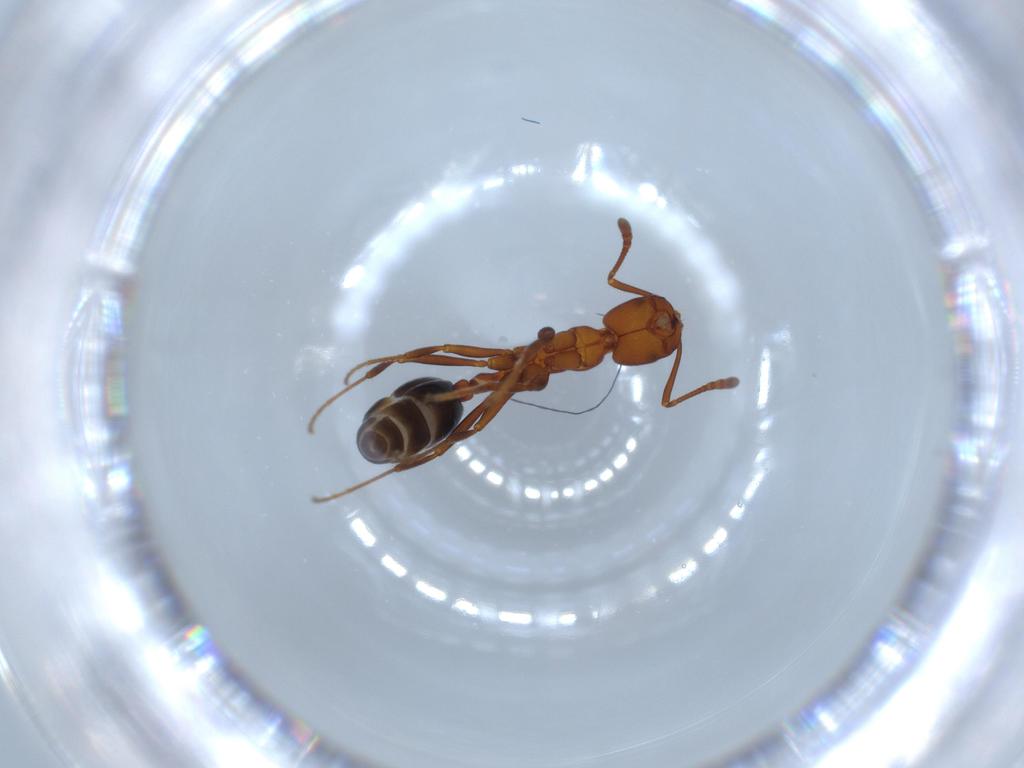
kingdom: Animalia
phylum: Arthropoda
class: Insecta
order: Hymenoptera
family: Formicidae
